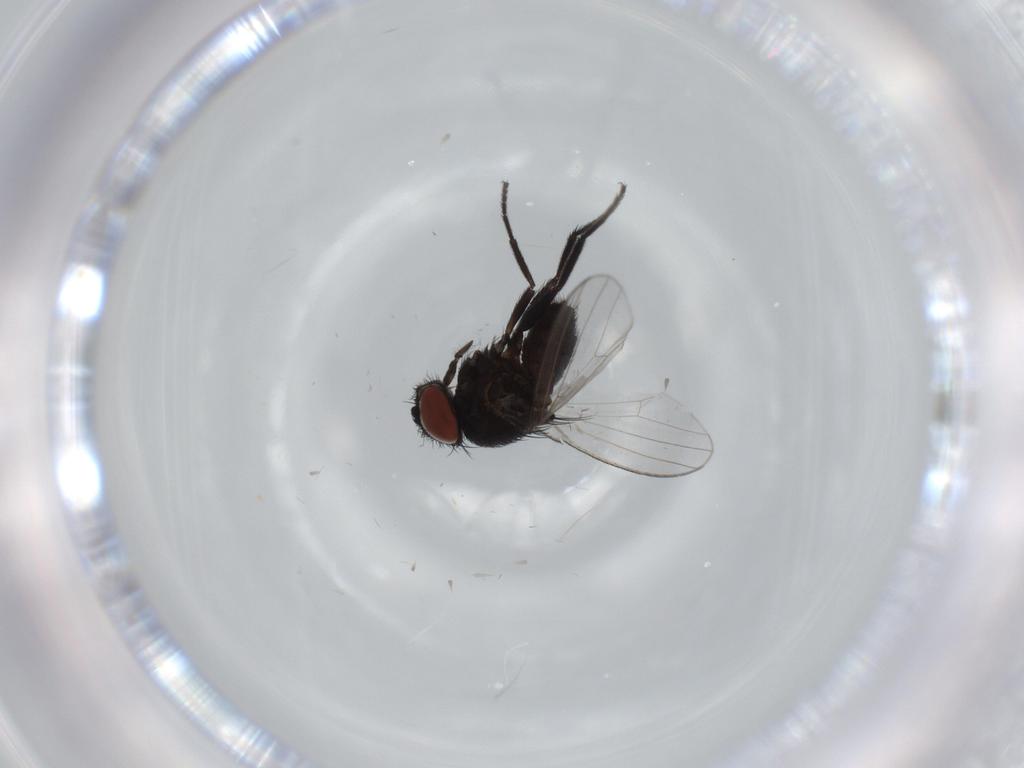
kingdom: Animalia
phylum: Arthropoda
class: Insecta
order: Diptera
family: Milichiidae
